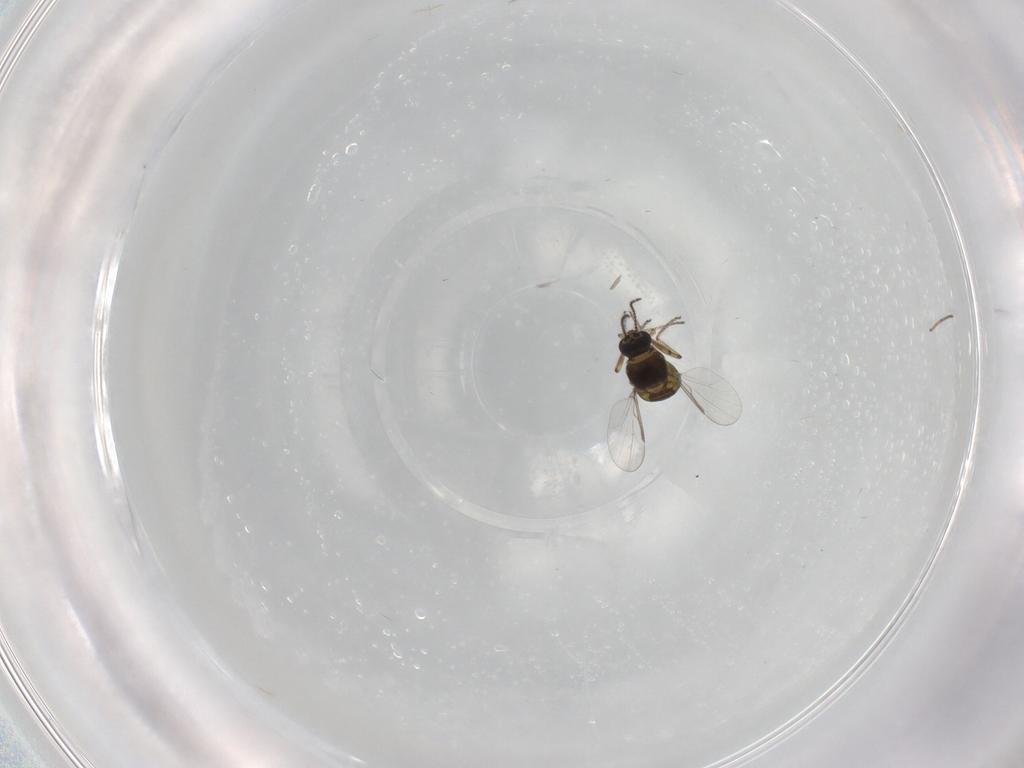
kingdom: Animalia
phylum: Arthropoda
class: Insecta
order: Diptera
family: Ceratopogonidae
